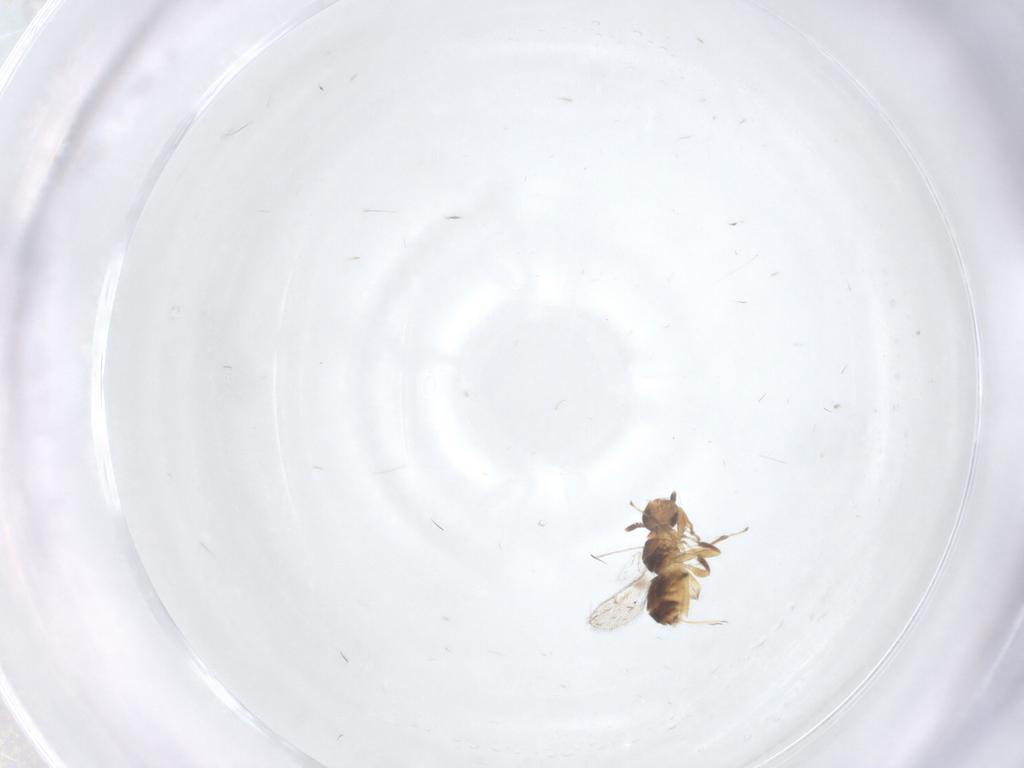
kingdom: Animalia
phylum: Arthropoda
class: Insecta
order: Hymenoptera
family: Torymidae
